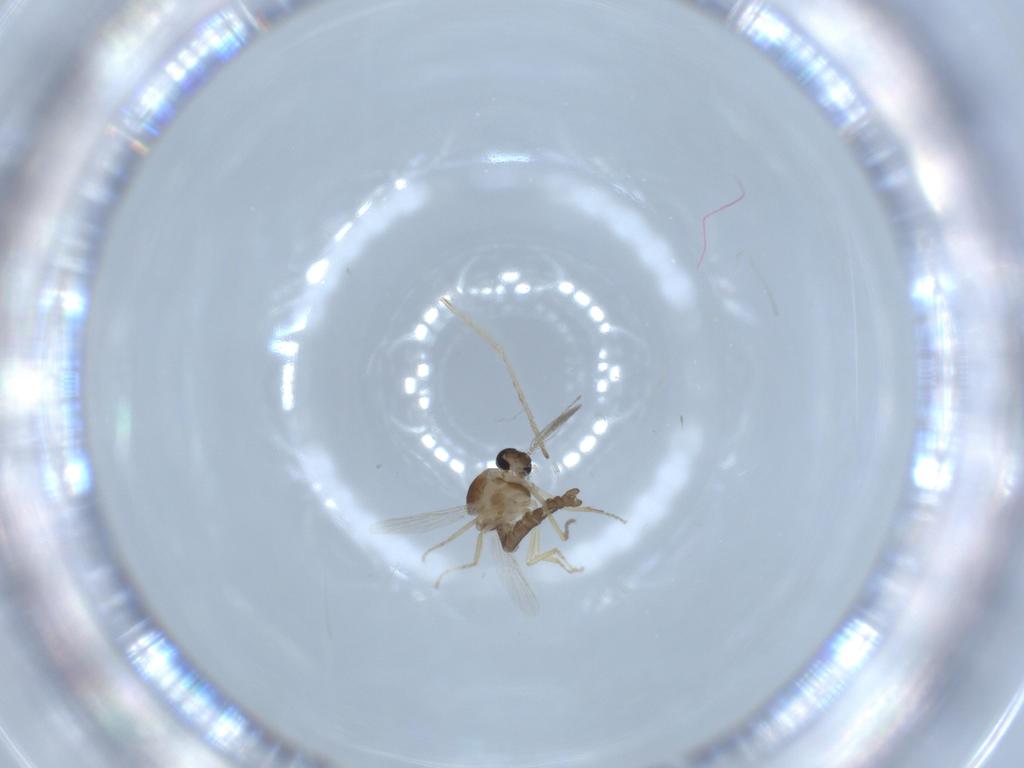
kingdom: Animalia
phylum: Arthropoda
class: Insecta
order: Diptera
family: Ceratopogonidae
